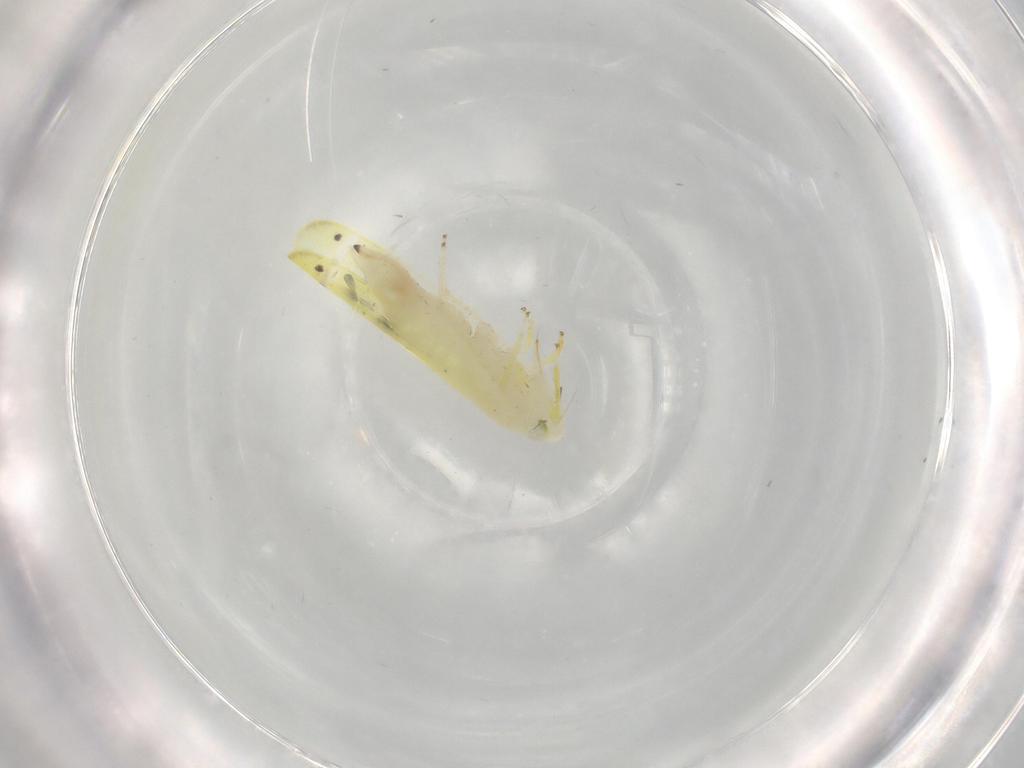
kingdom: Animalia
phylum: Arthropoda
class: Insecta
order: Hemiptera
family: Cicadellidae
